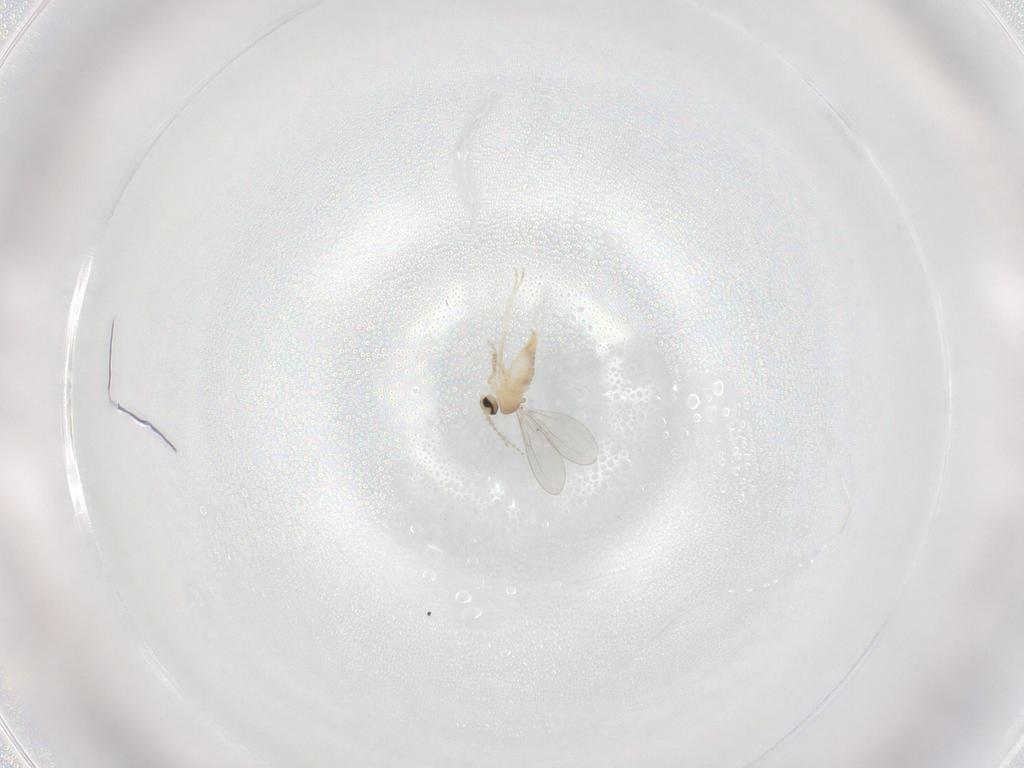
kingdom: Animalia
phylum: Arthropoda
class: Insecta
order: Diptera
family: Cecidomyiidae
